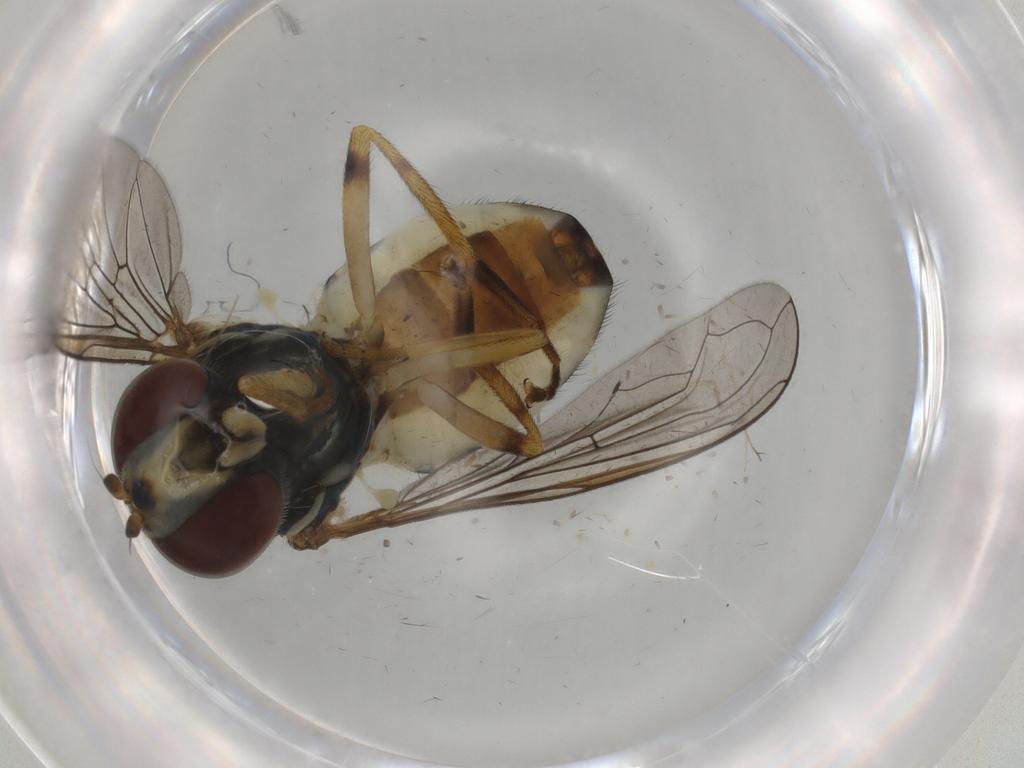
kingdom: Animalia
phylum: Arthropoda
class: Insecta
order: Diptera
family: Syrphidae
